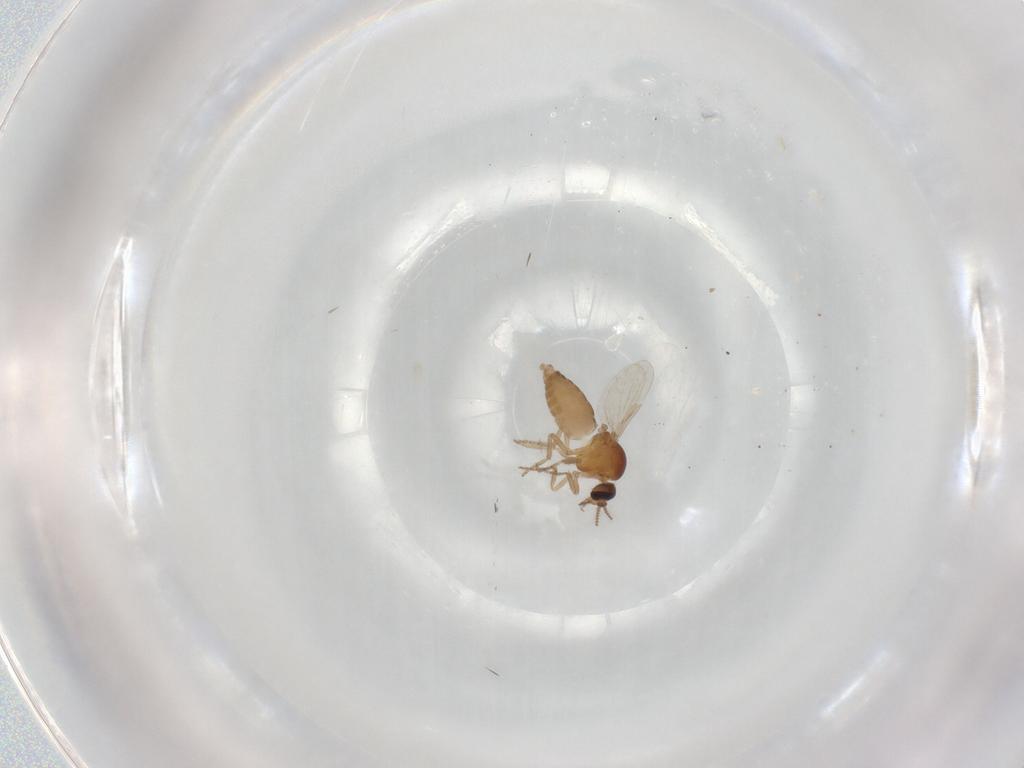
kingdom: Animalia
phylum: Arthropoda
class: Insecta
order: Diptera
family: Ceratopogonidae
